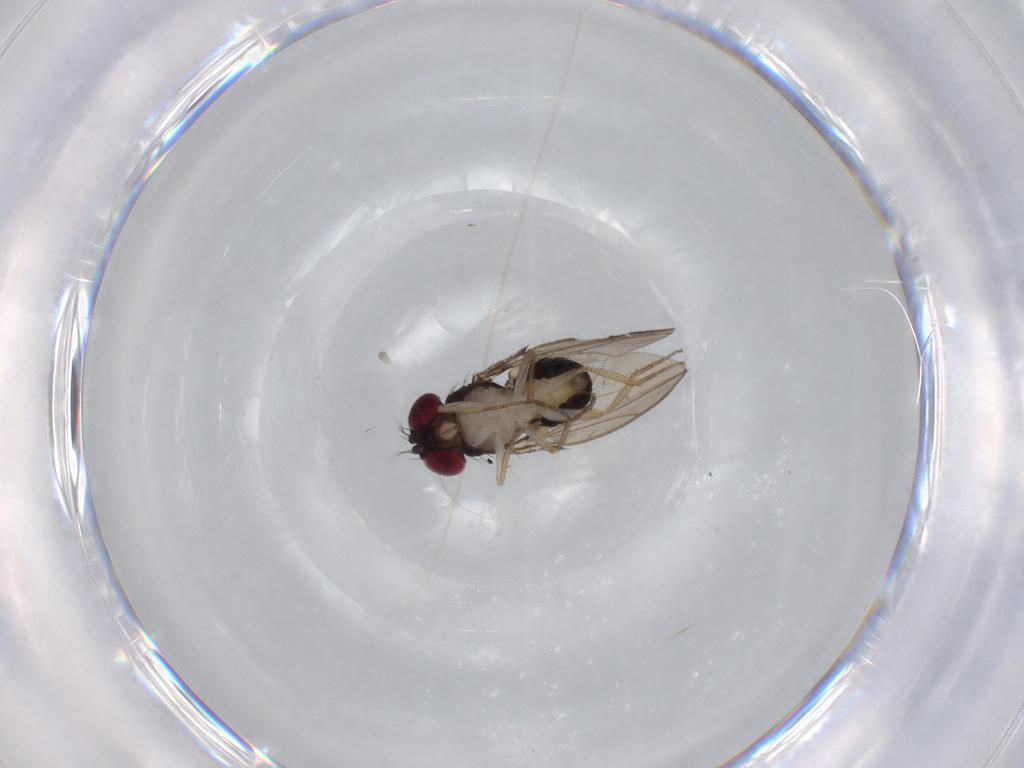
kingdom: Animalia
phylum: Arthropoda
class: Insecta
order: Diptera
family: Drosophilidae
